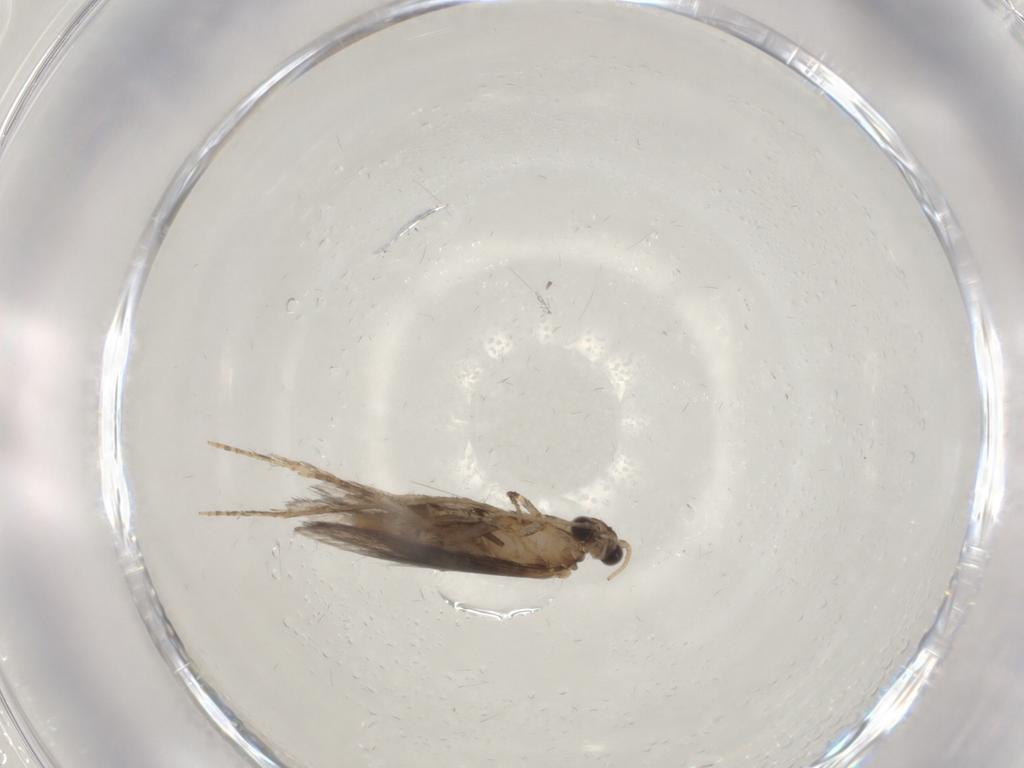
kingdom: Animalia
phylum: Arthropoda
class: Insecta
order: Trichoptera
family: Hydroptilidae
